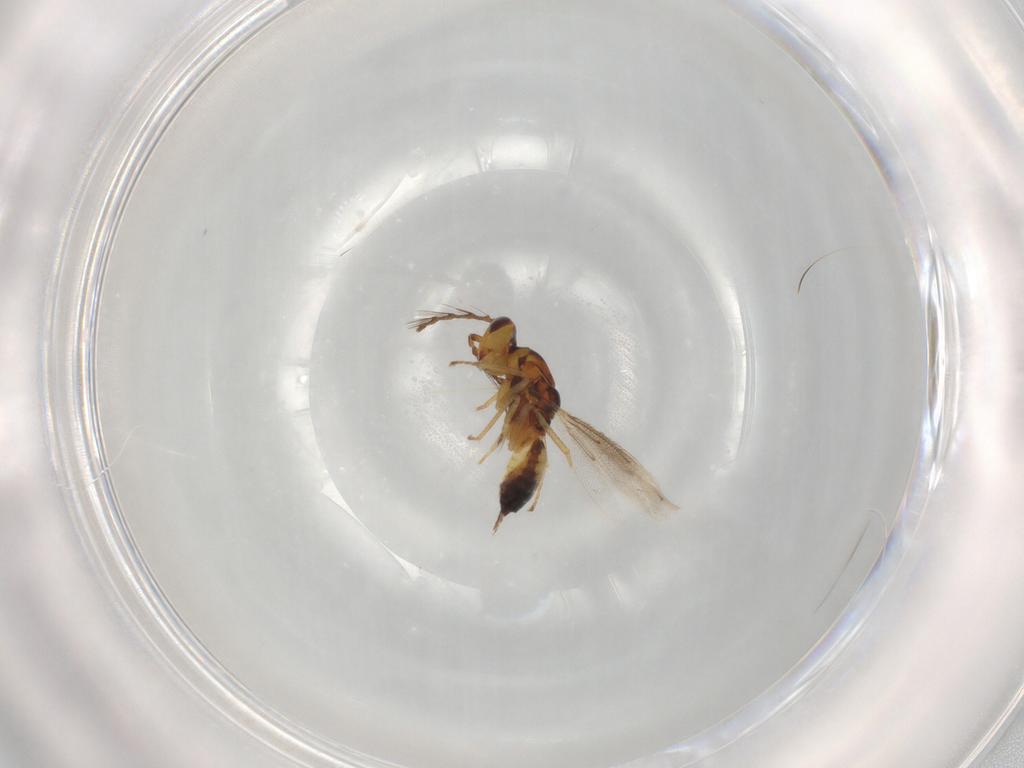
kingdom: Animalia
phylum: Arthropoda
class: Insecta
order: Hymenoptera
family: Eulophidae
